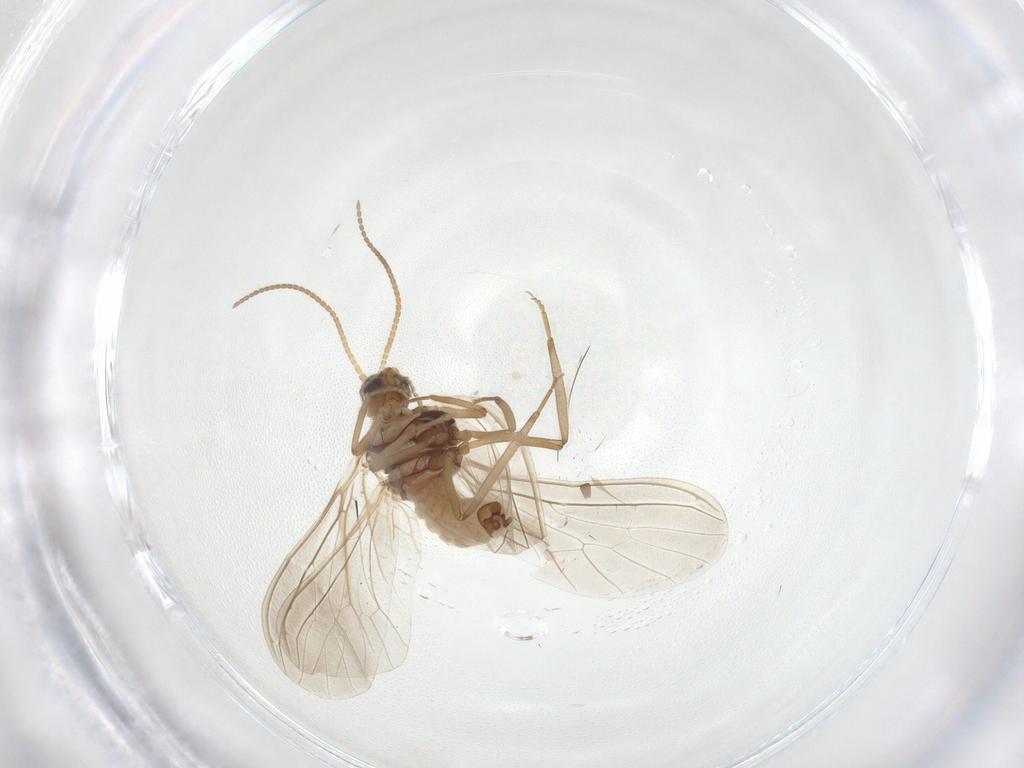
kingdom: Animalia
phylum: Arthropoda
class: Insecta
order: Neuroptera
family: Coniopterygidae
